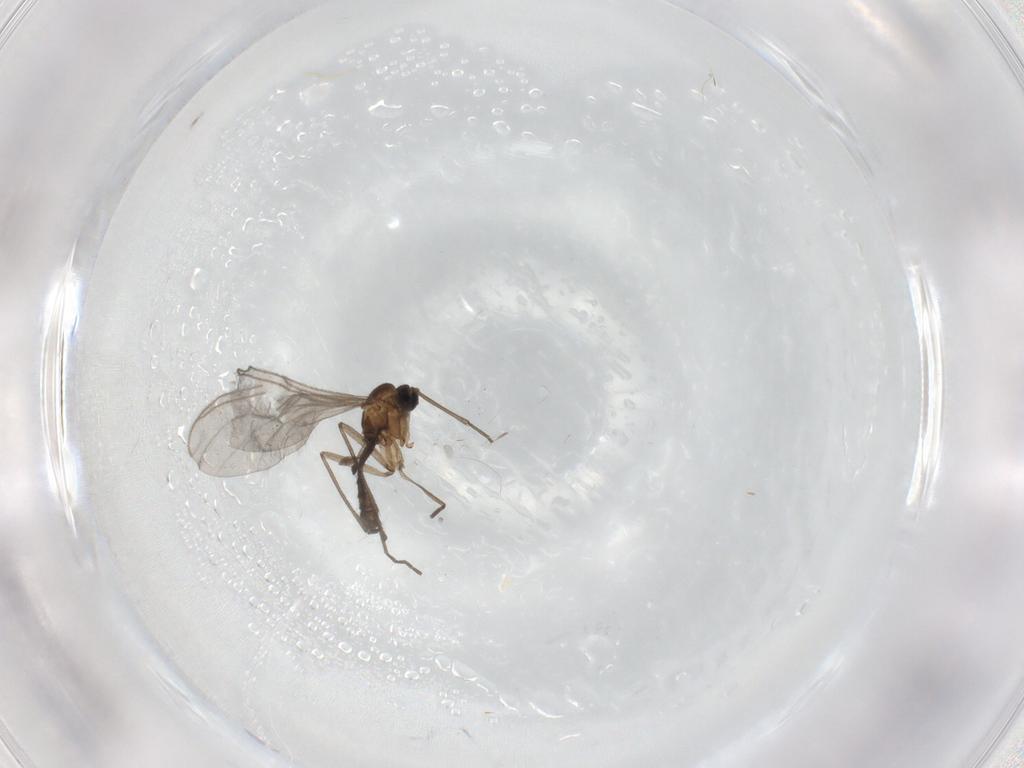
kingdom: Animalia
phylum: Arthropoda
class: Insecta
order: Diptera
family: Sciaridae
